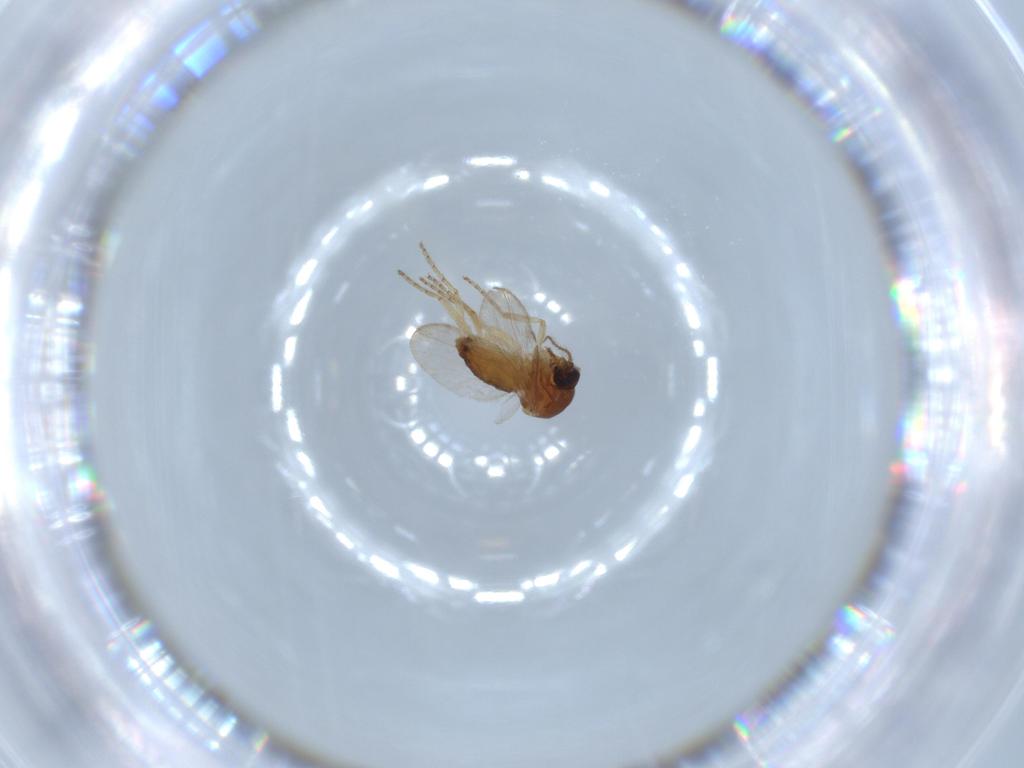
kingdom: Animalia
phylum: Arthropoda
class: Insecta
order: Diptera
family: Ceratopogonidae
